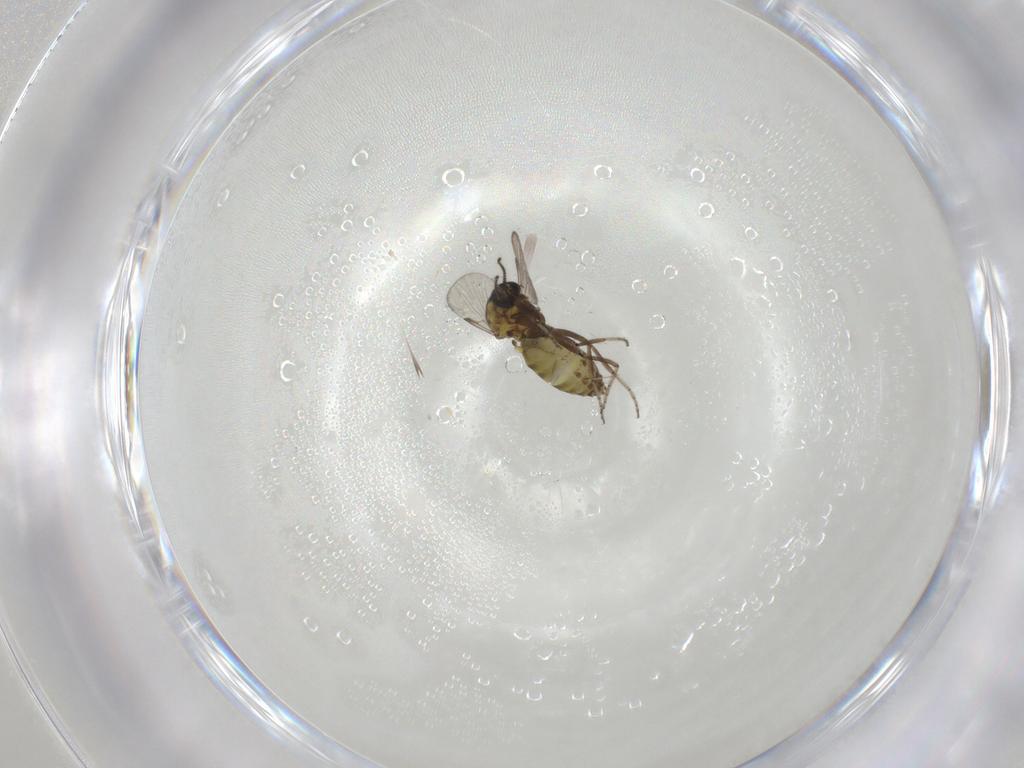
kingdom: Animalia
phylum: Arthropoda
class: Insecta
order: Diptera
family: Ceratopogonidae
